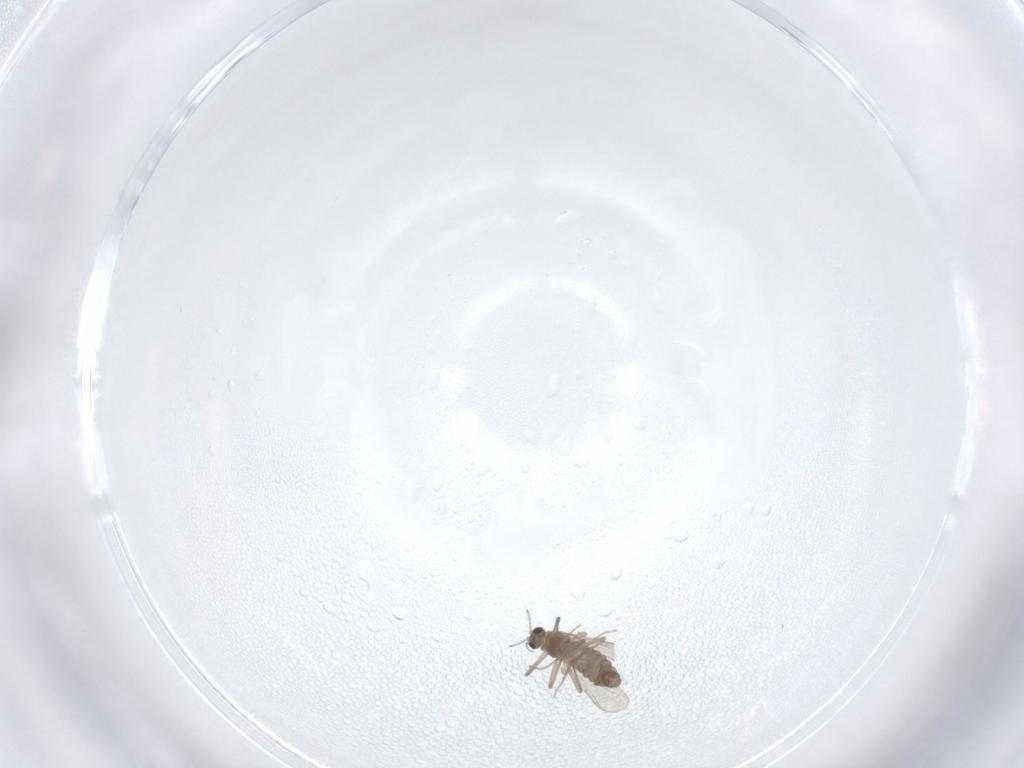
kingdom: Animalia
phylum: Arthropoda
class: Insecta
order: Diptera
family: Chironomidae
